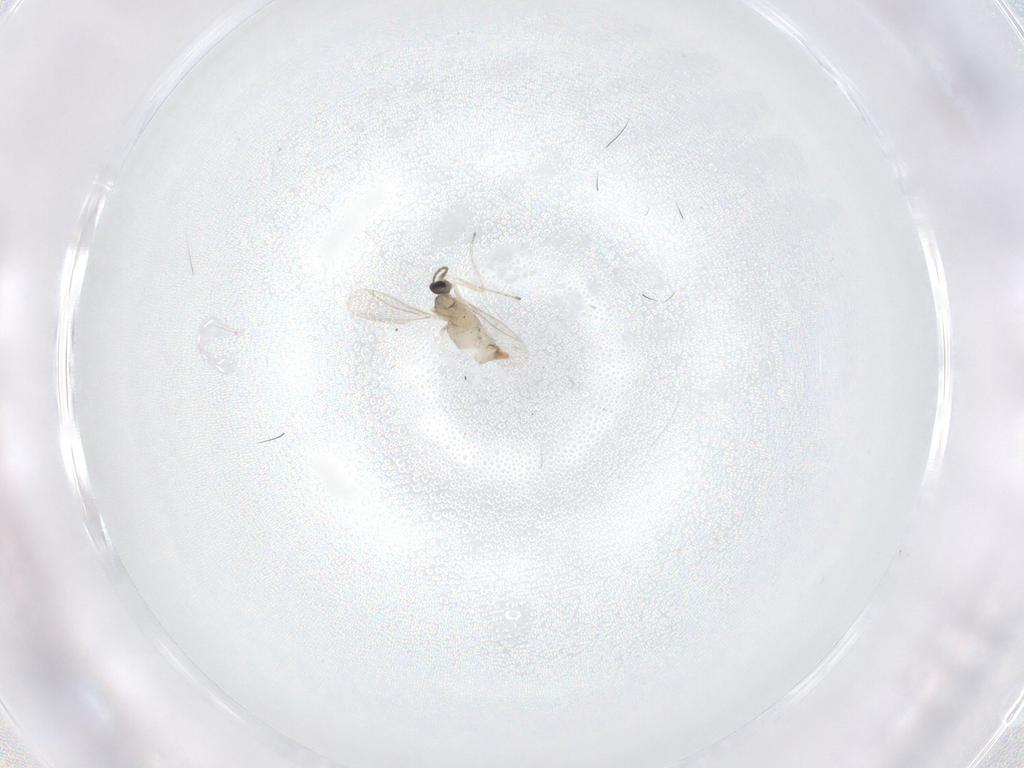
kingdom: Animalia
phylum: Arthropoda
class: Insecta
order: Diptera
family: Cecidomyiidae
